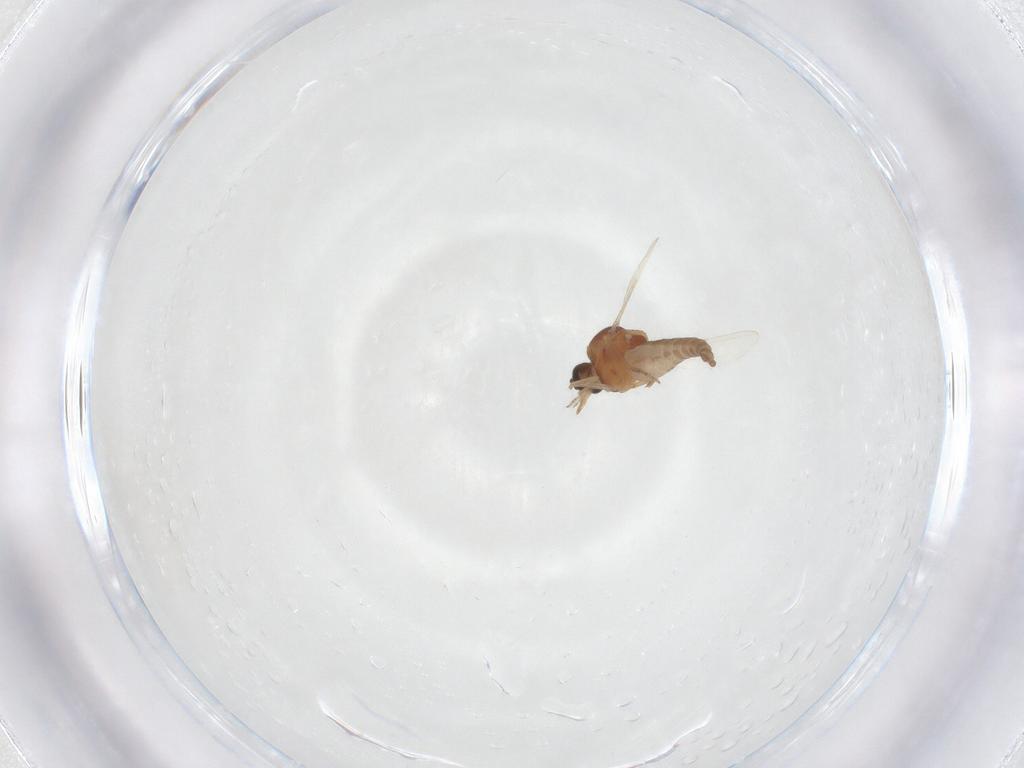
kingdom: Animalia
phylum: Arthropoda
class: Insecta
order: Diptera
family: Ceratopogonidae
